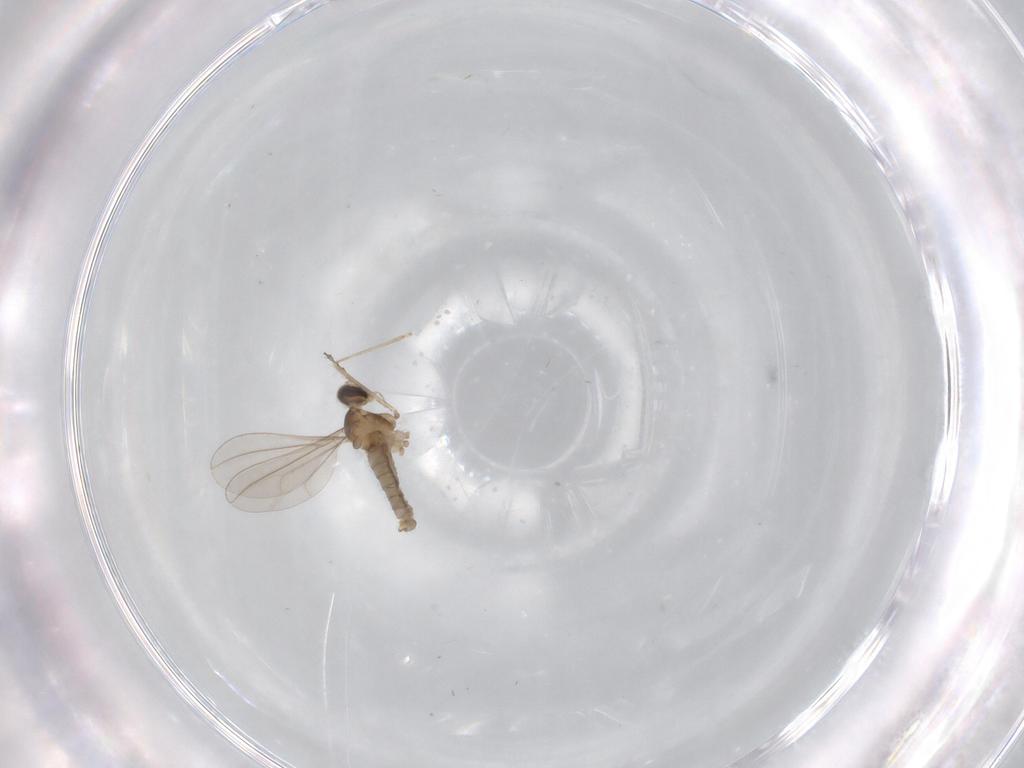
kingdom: Animalia
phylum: Arthropoda
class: Insecta
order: Diptera
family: Cecidomyiidae
